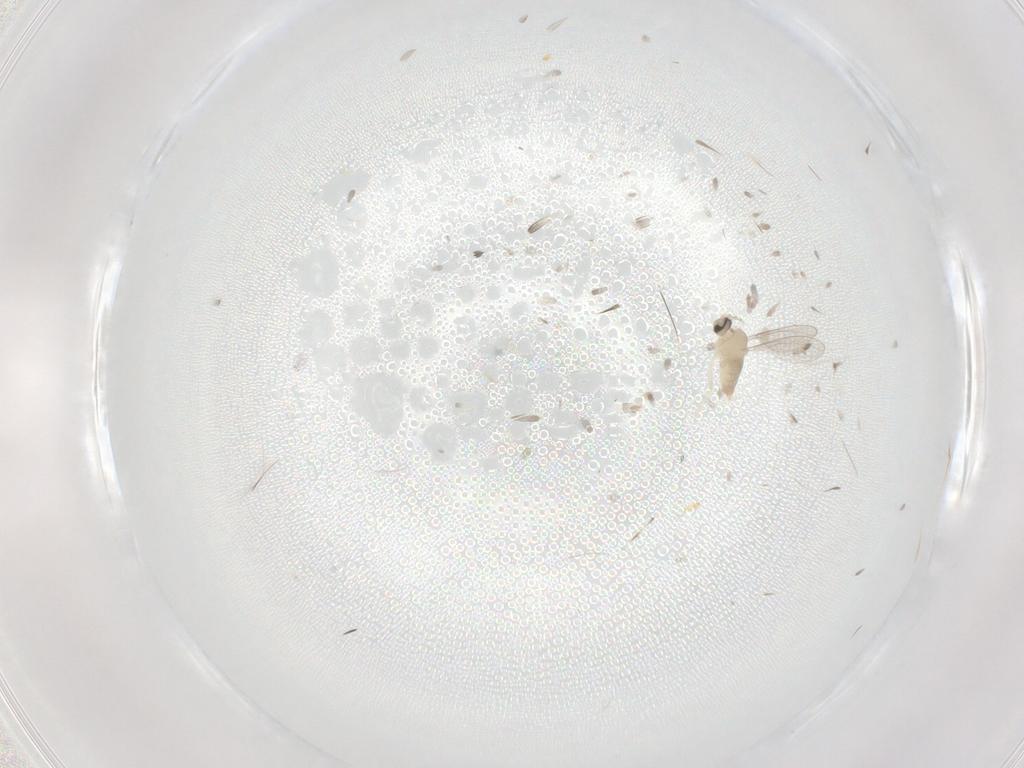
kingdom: Animalia
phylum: Arthropoda
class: Insecta
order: Diptera
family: Cecidomyiidae
